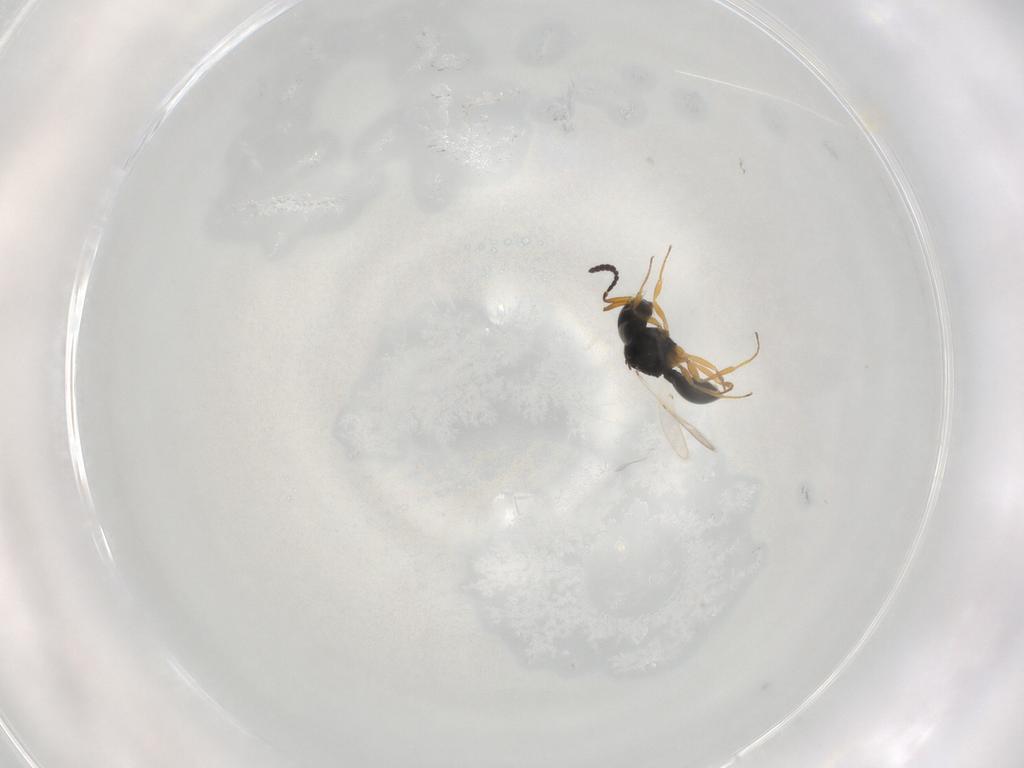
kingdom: Animalia
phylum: Arthropoda
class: Insecta
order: Hymenoptera
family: Scelionidae
